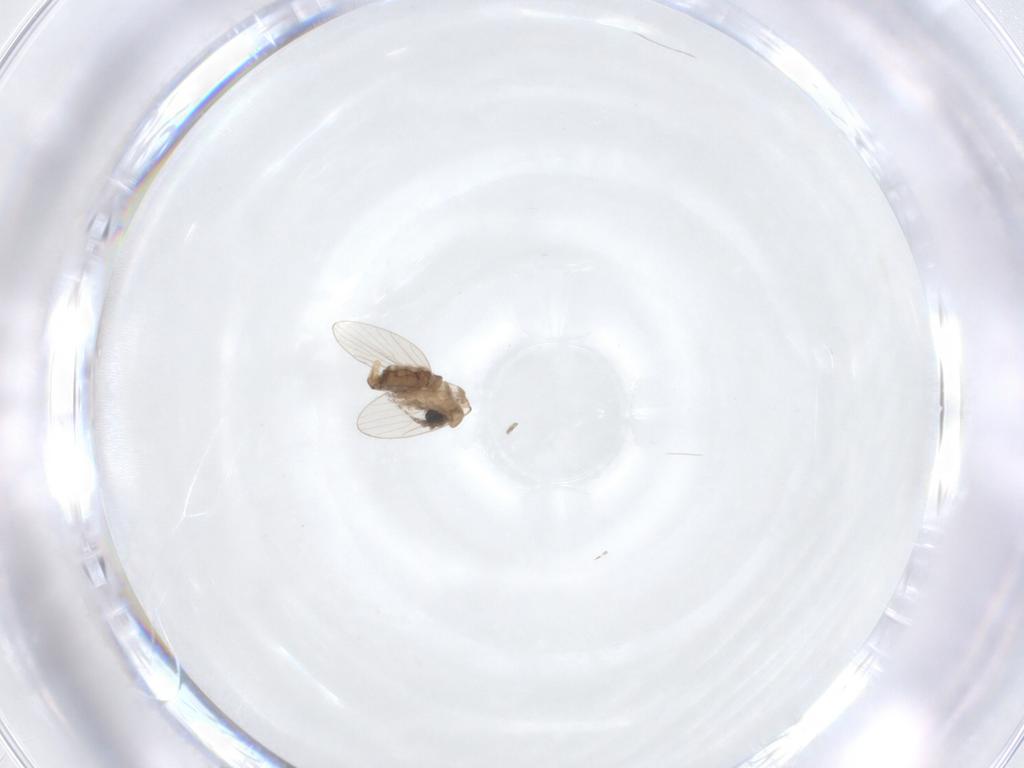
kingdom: Animalia
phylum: Arthropoda
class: Insecta
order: Diptera
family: Psychodidae
